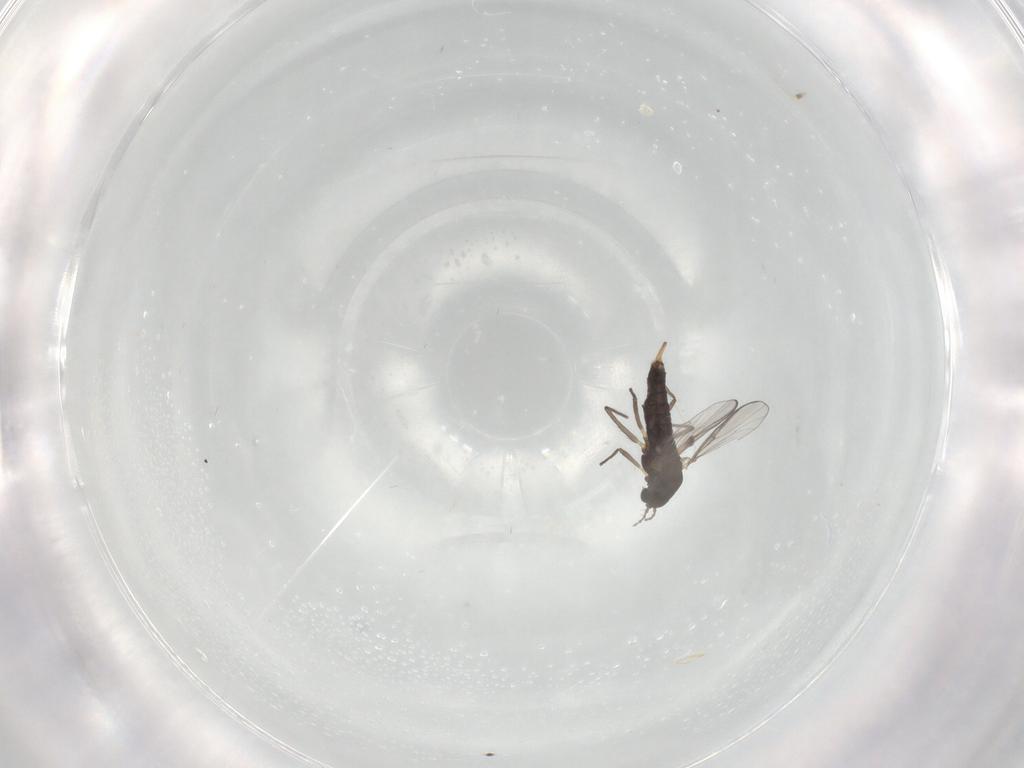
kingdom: Animalia
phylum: Arthropoda
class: Insecta
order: Diptera
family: Chironomidae
